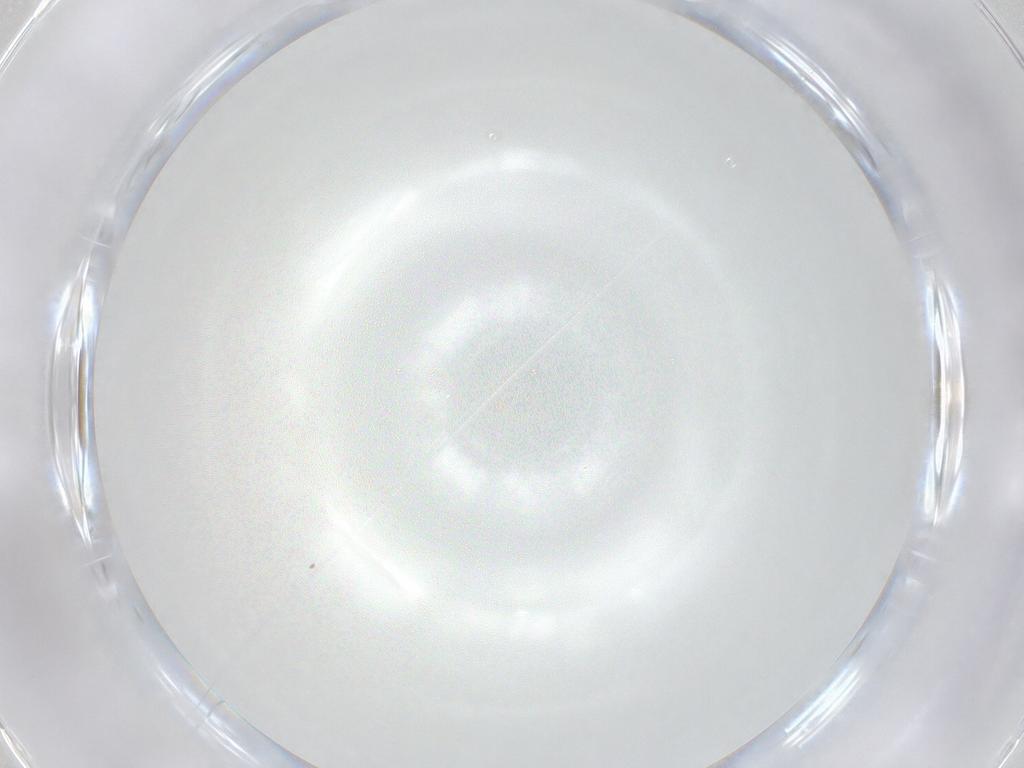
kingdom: Animalia
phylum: Arthropoda
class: Insecta
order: Diptera
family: Chironomidae
